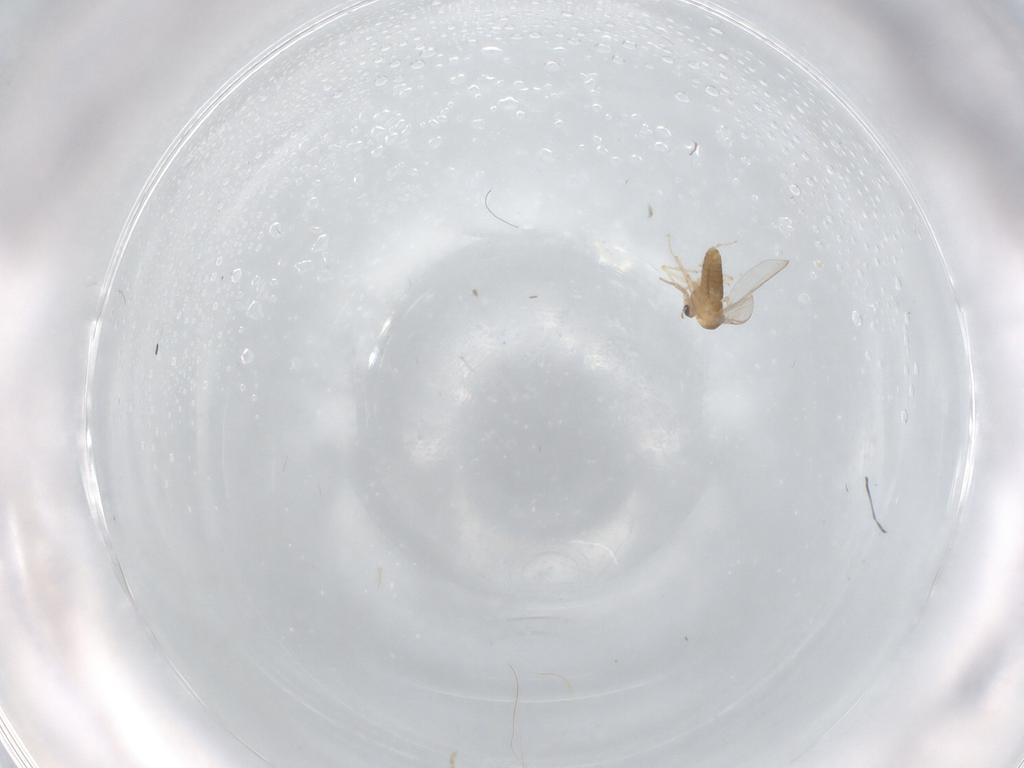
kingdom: Animalia
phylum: Arthropoda
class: Insecta
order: Diptera
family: Chironomidae
